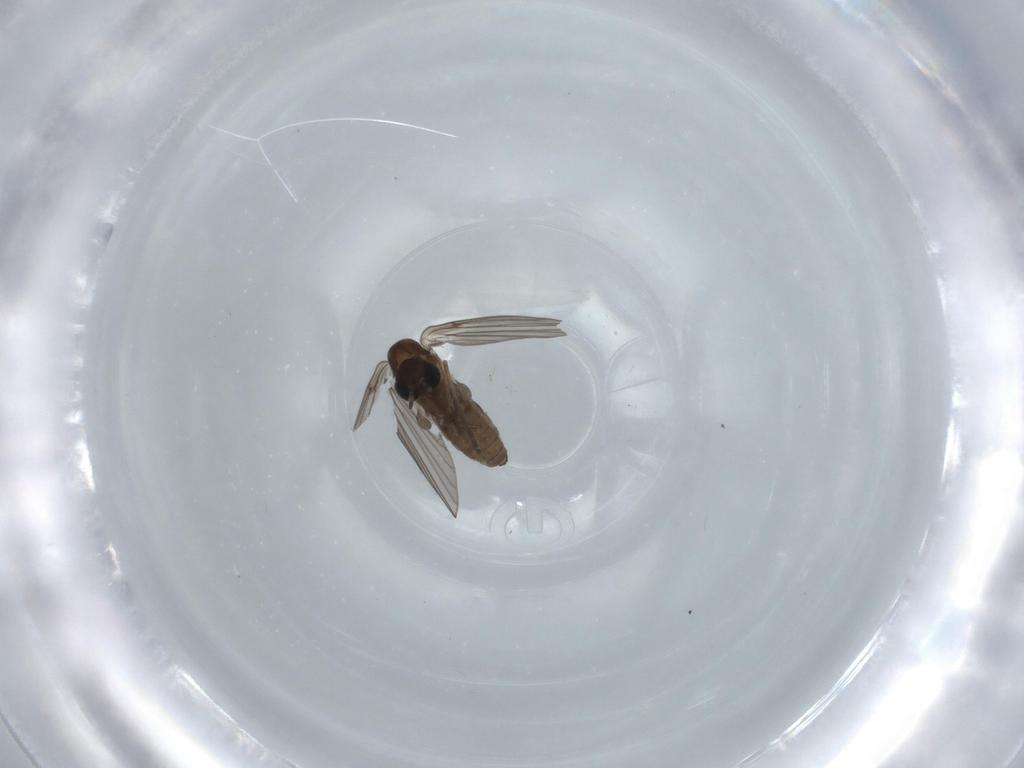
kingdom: Animalia
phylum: Arthropoda
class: Insecta
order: Diptera
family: Psychodidae
